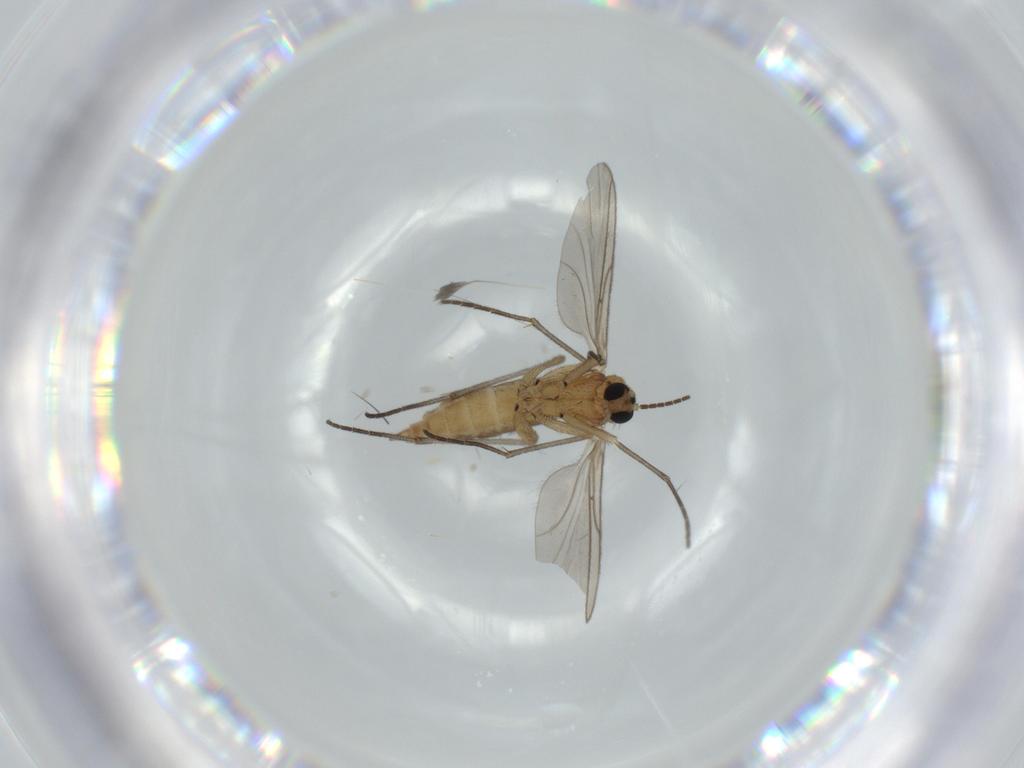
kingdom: Animalia
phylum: Arthropoda
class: Insecta
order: Diptera
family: Sciaridae
